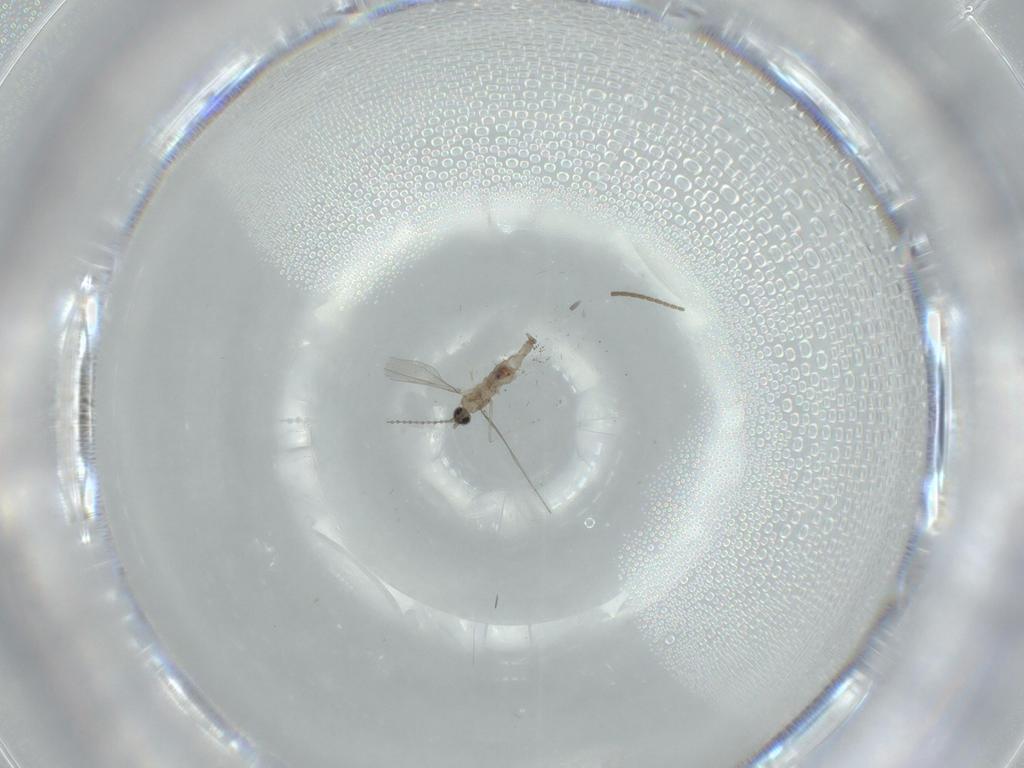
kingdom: Animalia
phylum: Arthropoda
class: Insecta
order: Diptera
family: Sciaridae
